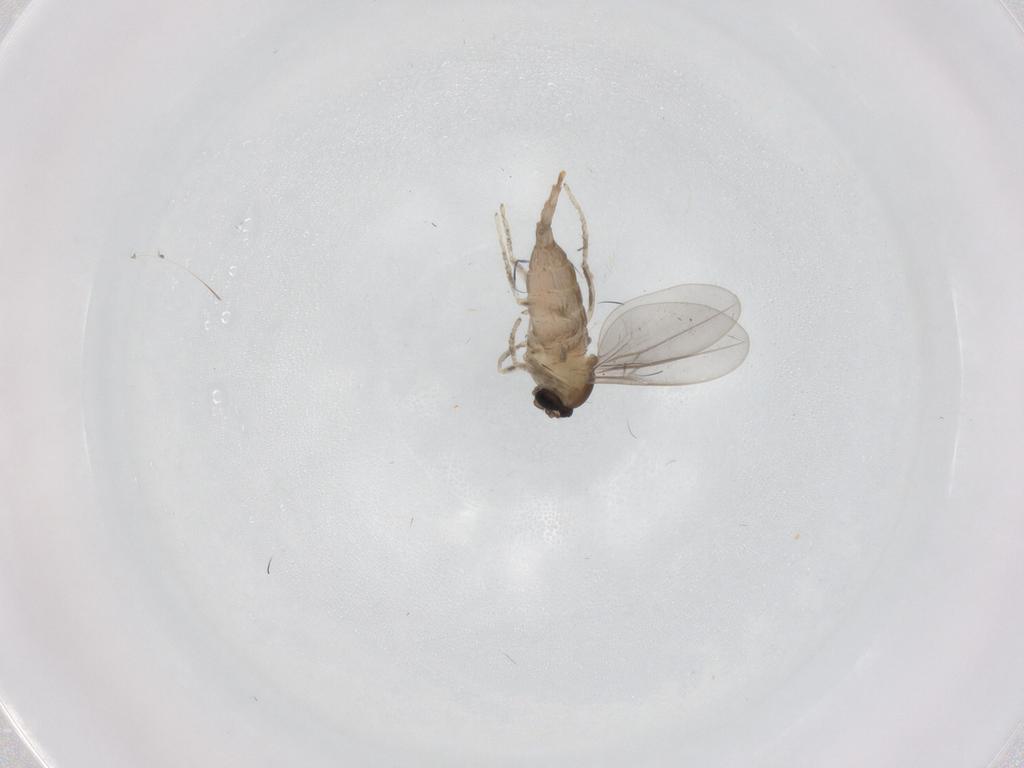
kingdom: Animalia
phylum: Arthropoda
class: Insecta
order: Diptera
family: Cecidomyiidae
